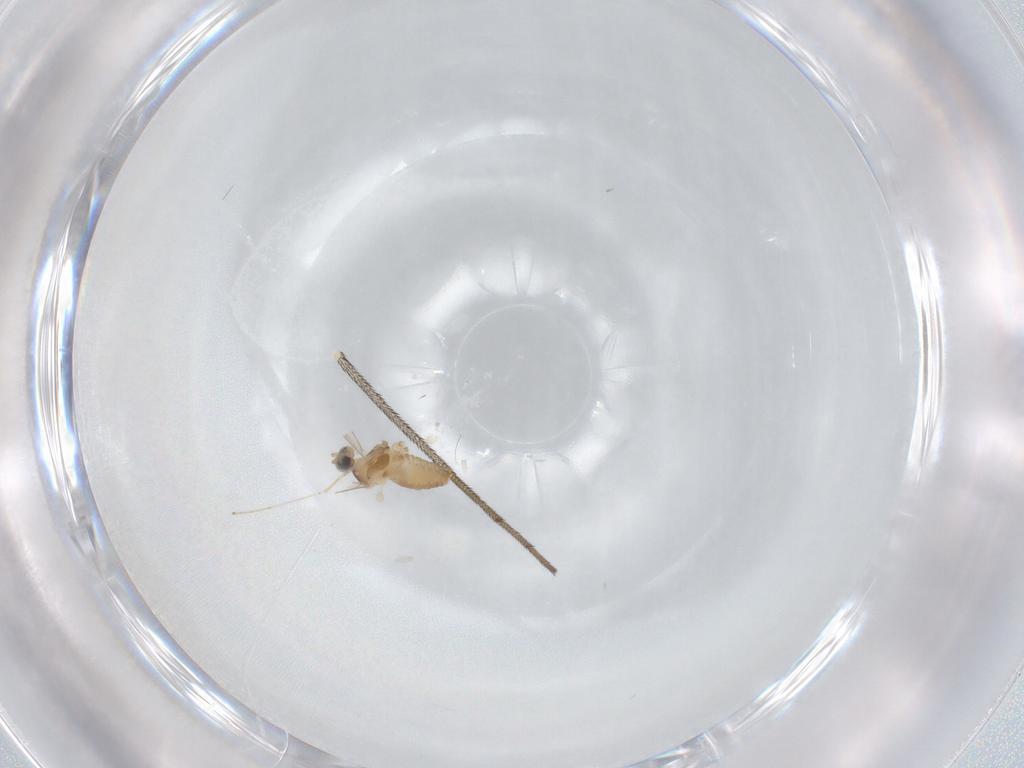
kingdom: Animalia
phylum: Arthropoda
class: Insecta
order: Diptera
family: Cecidomyiidae
